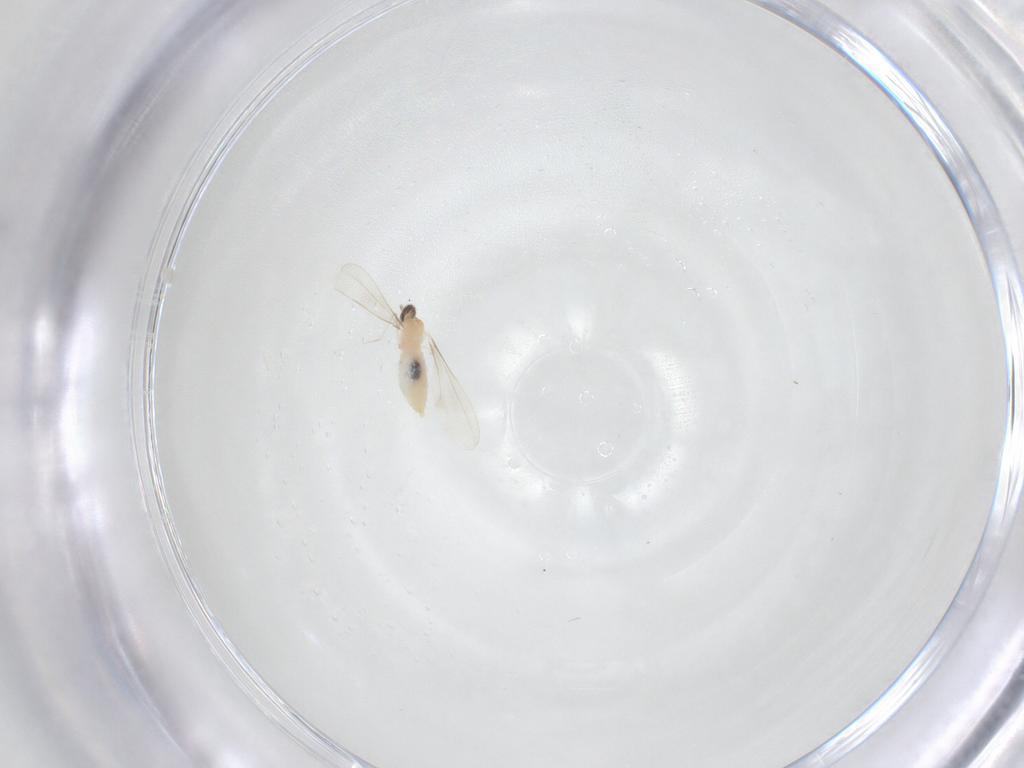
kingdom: Animalia
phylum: Arthropoda
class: Insecta
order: Diptera
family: Cecidomyiidae
